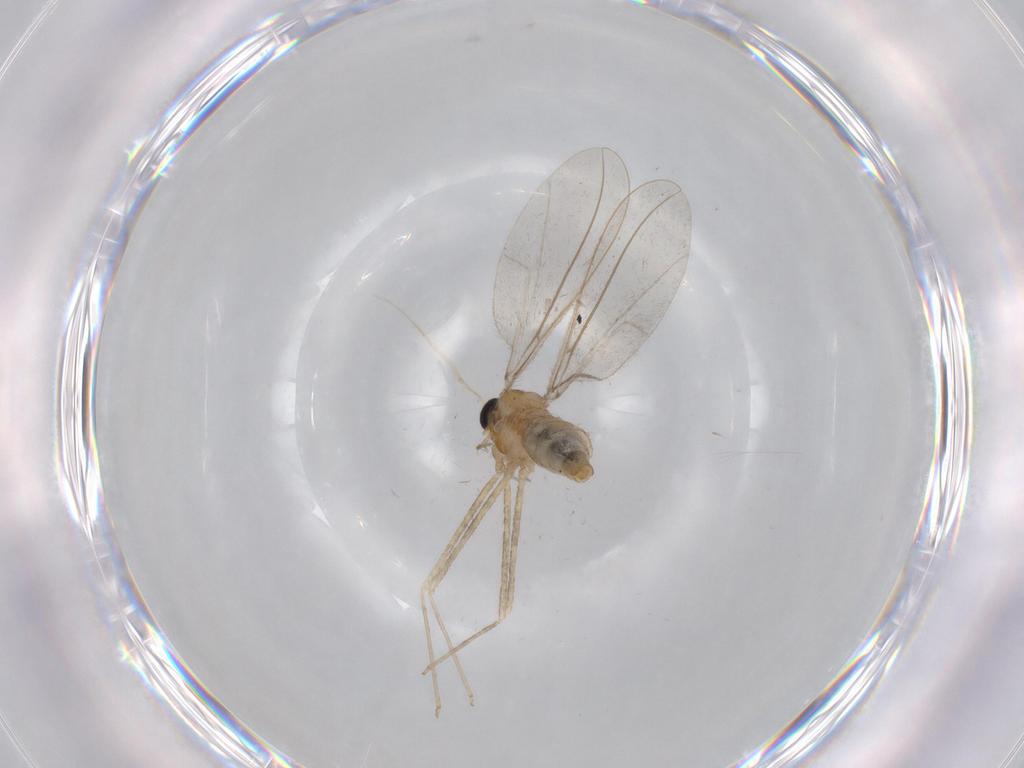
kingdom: Animalia
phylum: Arthropoda
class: Insecta
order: Diptera
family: Cecidomyiidae
